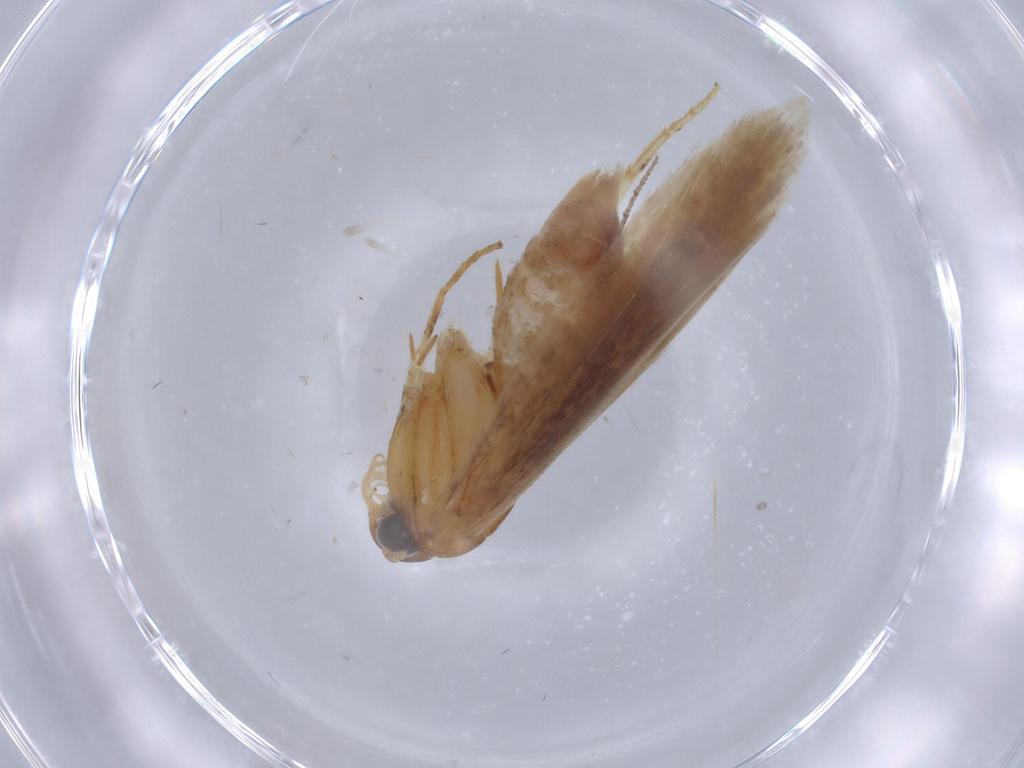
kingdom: Animalia
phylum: Arthropoda
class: Insecta
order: Lepidoptera
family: Gelechiidae
